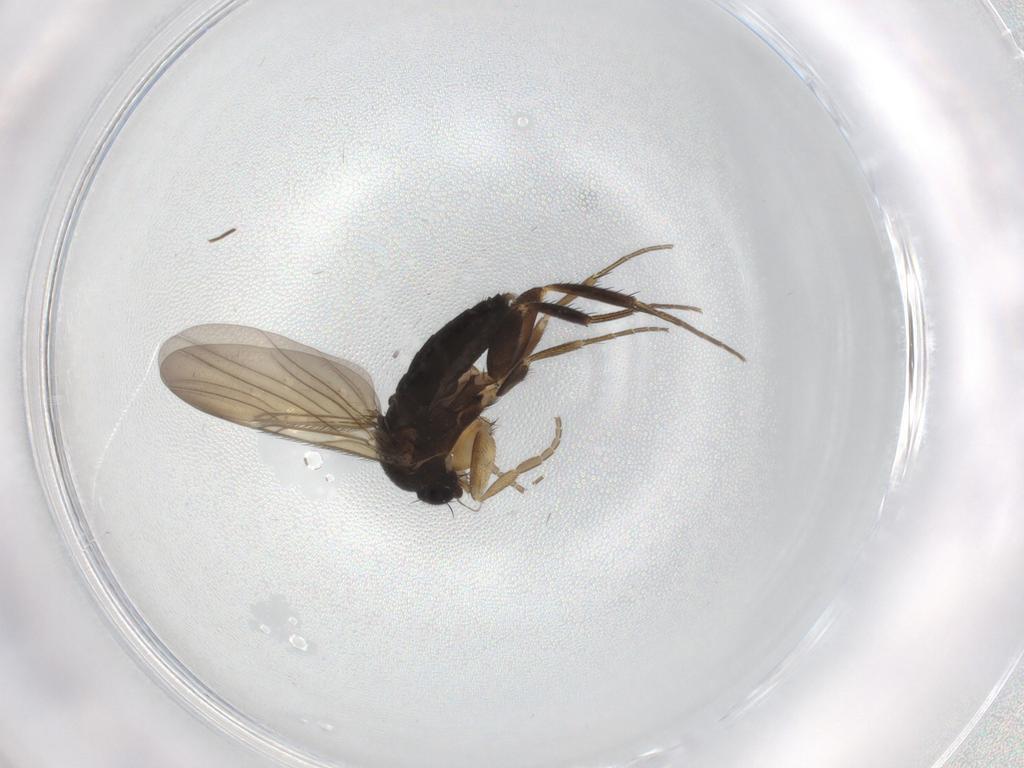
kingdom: Animalia
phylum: Arthropoda
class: Insecta
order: Diptera
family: Phoridae
